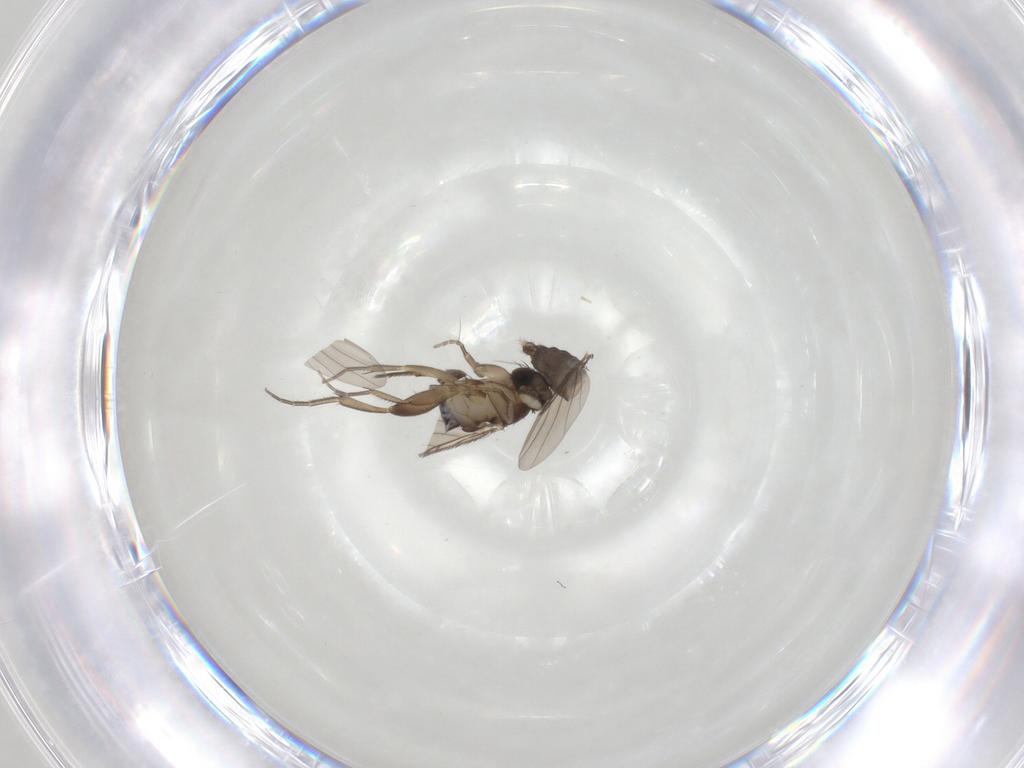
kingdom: Animalia
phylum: Arthropoda
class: Insecta
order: Diptera
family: Phoridae
